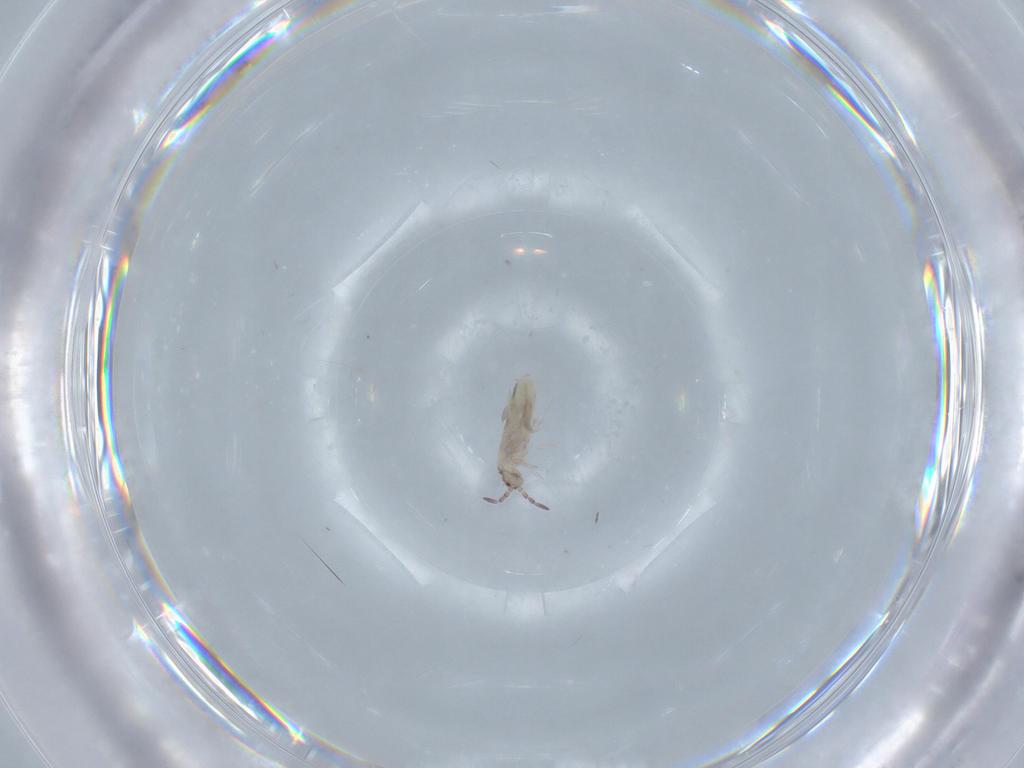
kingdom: Animalia
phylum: Arthropoda
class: Collembola
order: Entomobryomorpha
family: Entomobryidae
